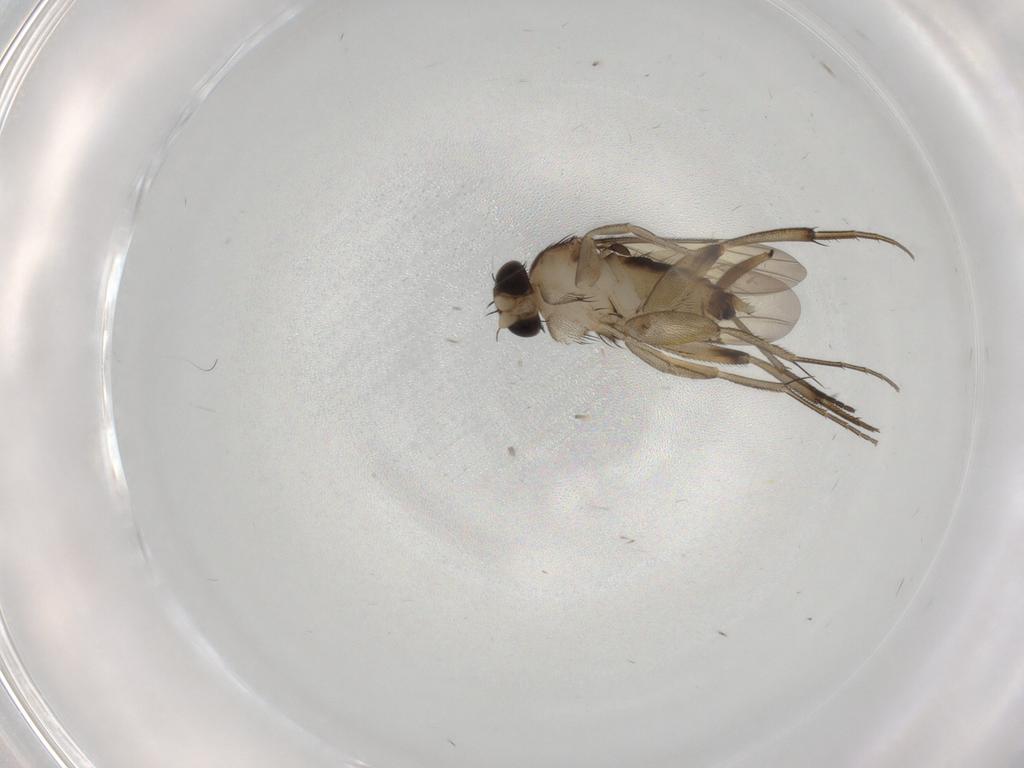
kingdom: Animalia
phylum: Arthropoda
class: Insecta
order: Diptera
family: Phoridae
